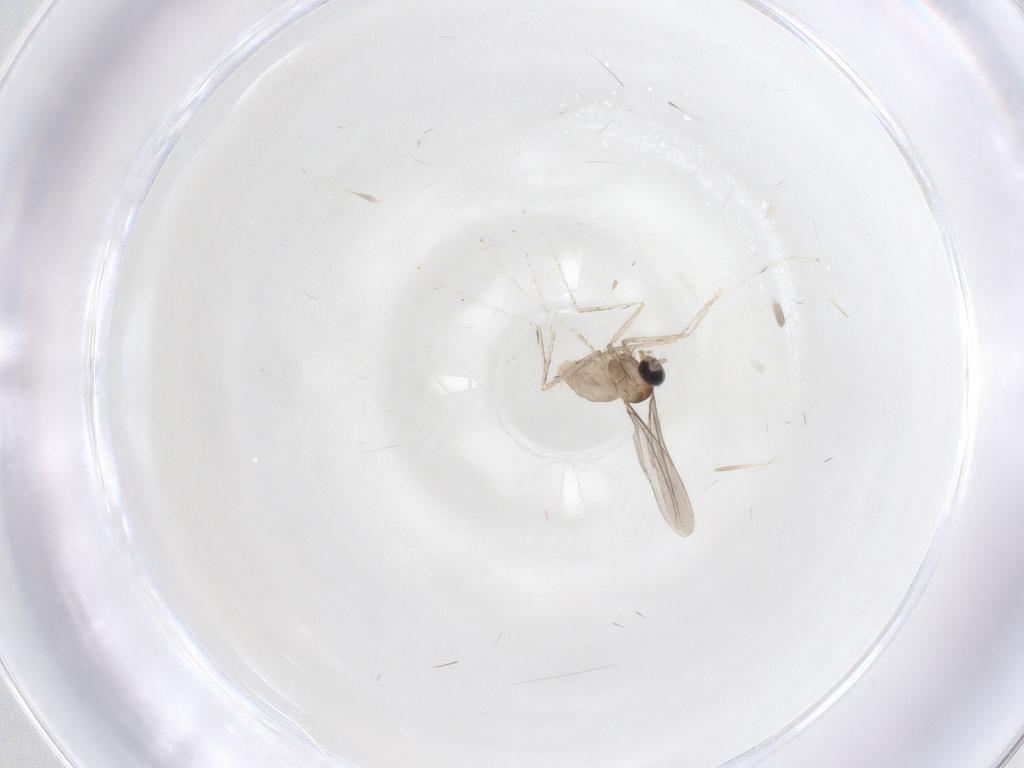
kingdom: Animalia
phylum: Arthropoda
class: Insecta
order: Diptera
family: Cecidomyiidae
